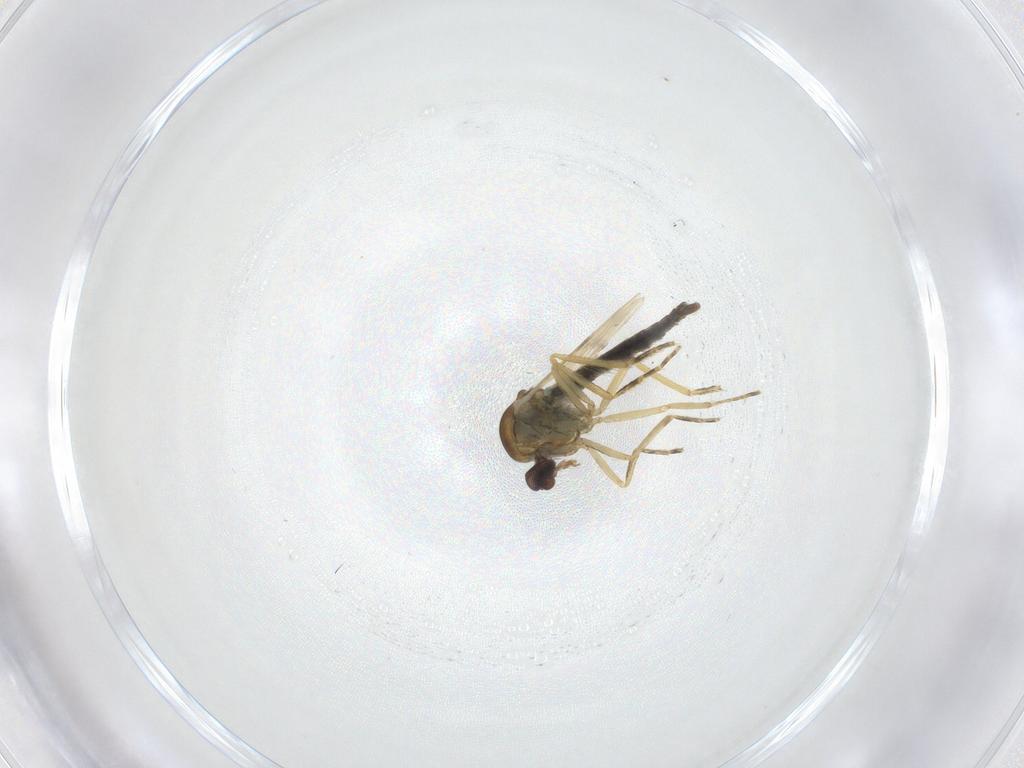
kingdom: Animalia
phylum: Arthropoda
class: Insecta
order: Diptera
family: Ceratopogonidae
